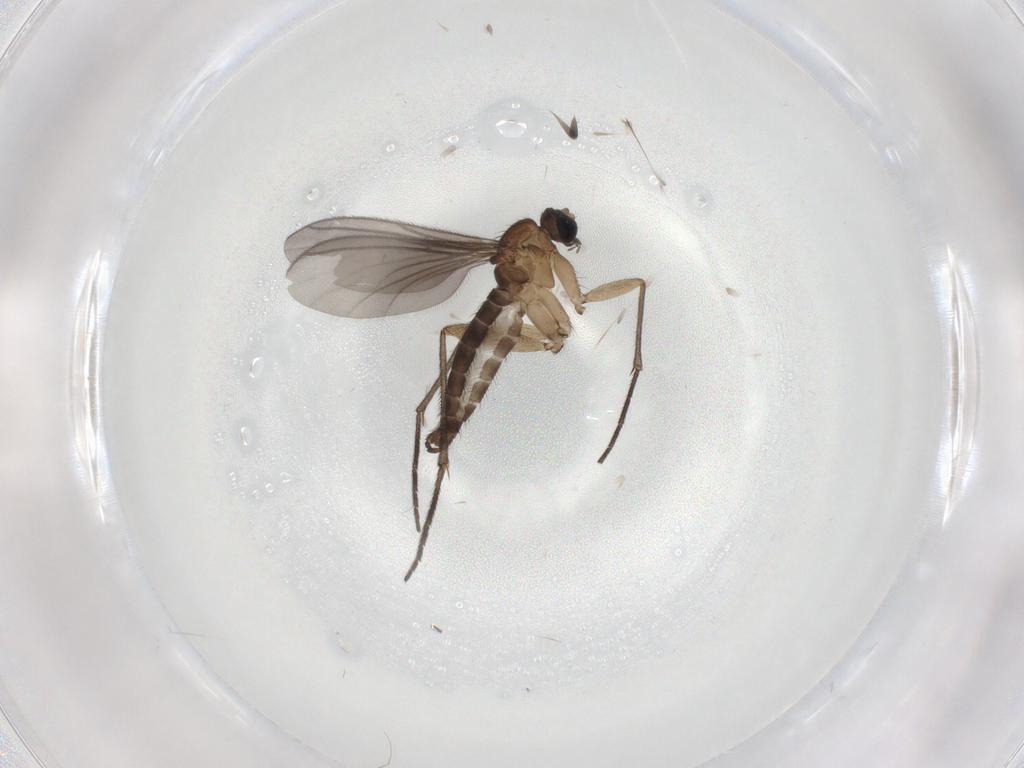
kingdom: Animalia
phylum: Arthropoda
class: Insecta
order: Diptera
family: Sciaridae
